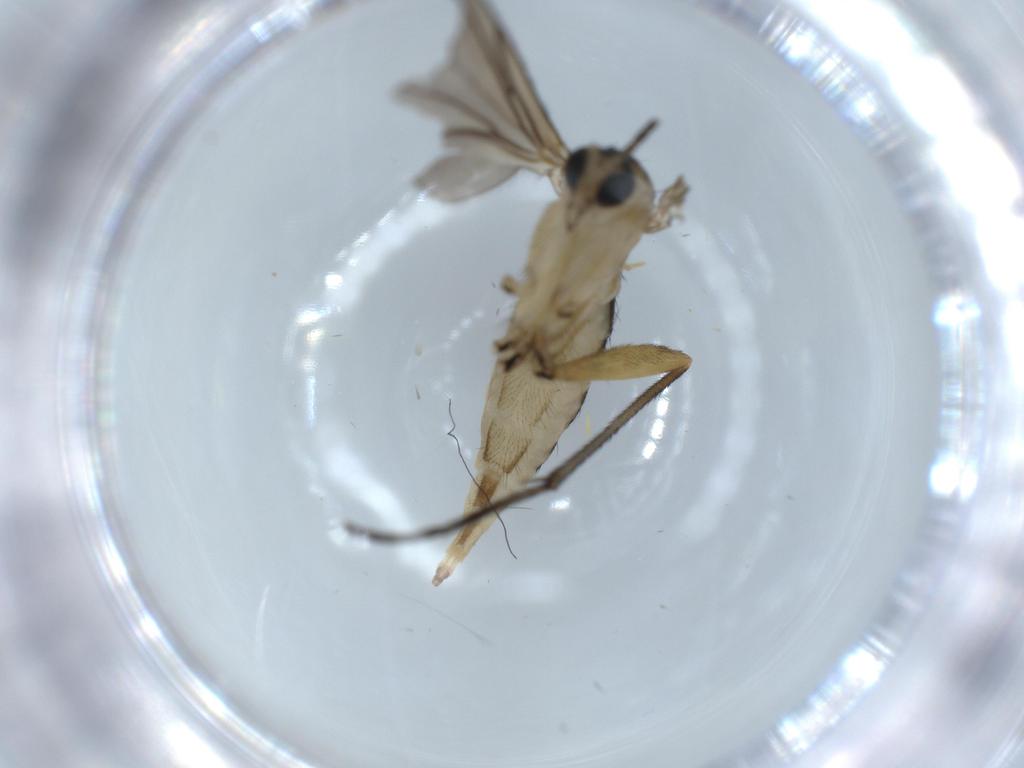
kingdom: Animalia
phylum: Arthropoda
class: Insecta
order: Diptera
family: Sciaridae
